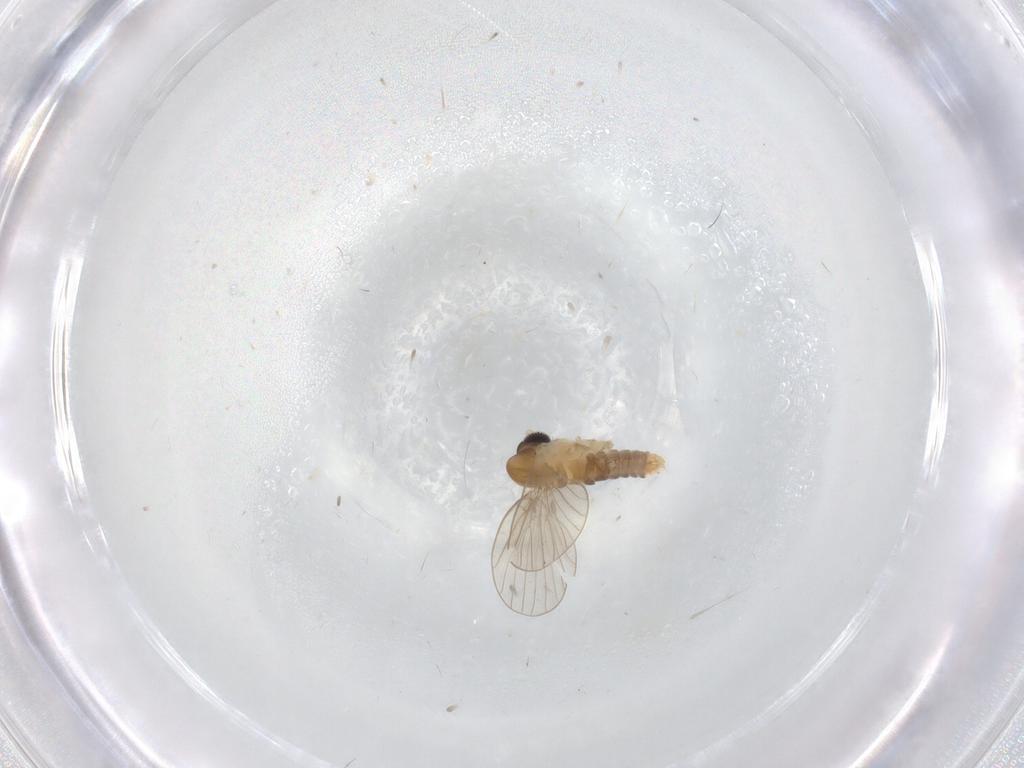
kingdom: Animalia
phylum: Arthropoda
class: Insecta
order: Diptera
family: Psychodidae
